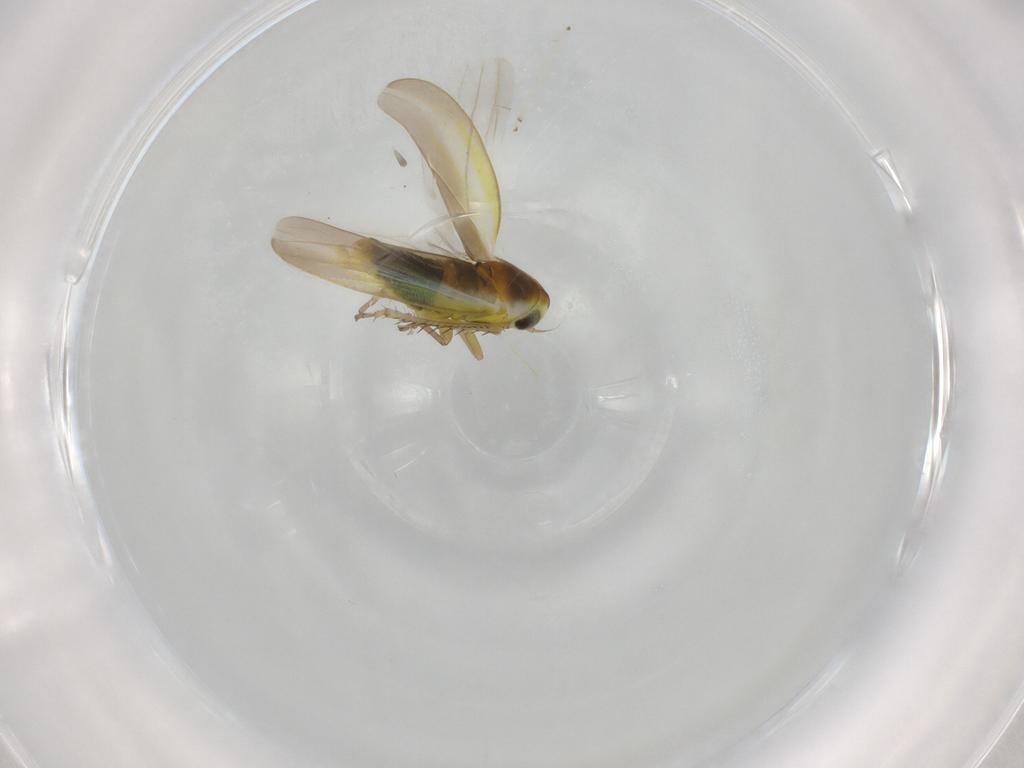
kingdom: Animalia
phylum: Arthropoda
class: Insecta
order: Hemiptera
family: Cicadellidae
